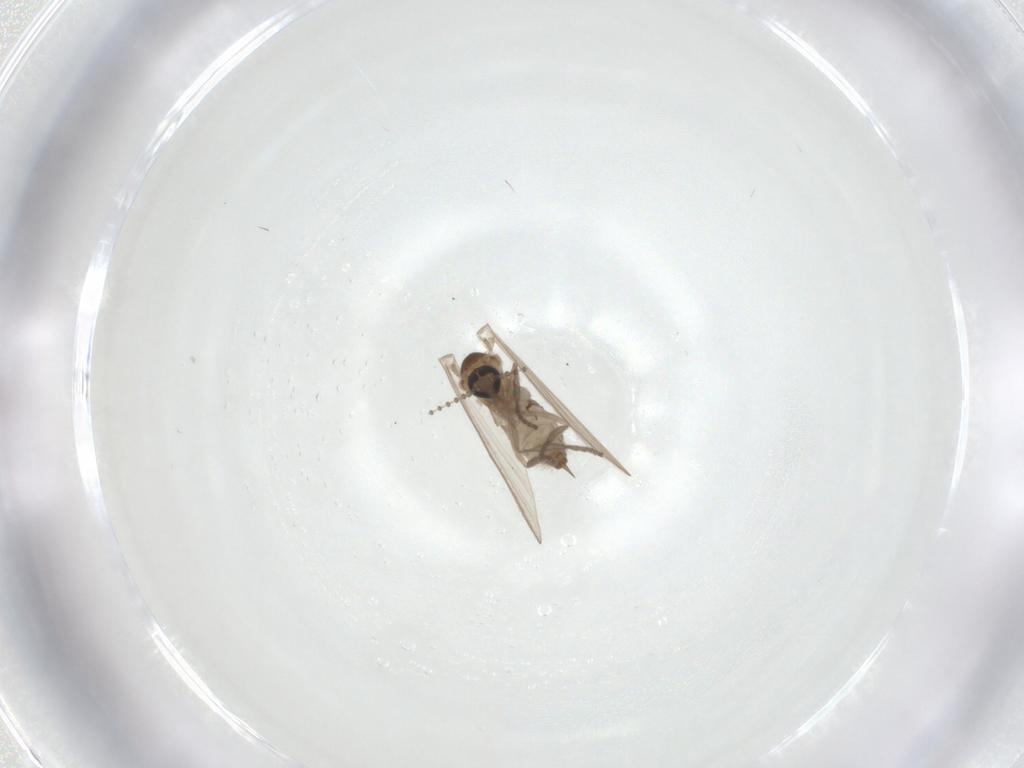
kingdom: Animalia
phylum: Arthropoda
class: Insecta
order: Diptera
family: Psychodidae
